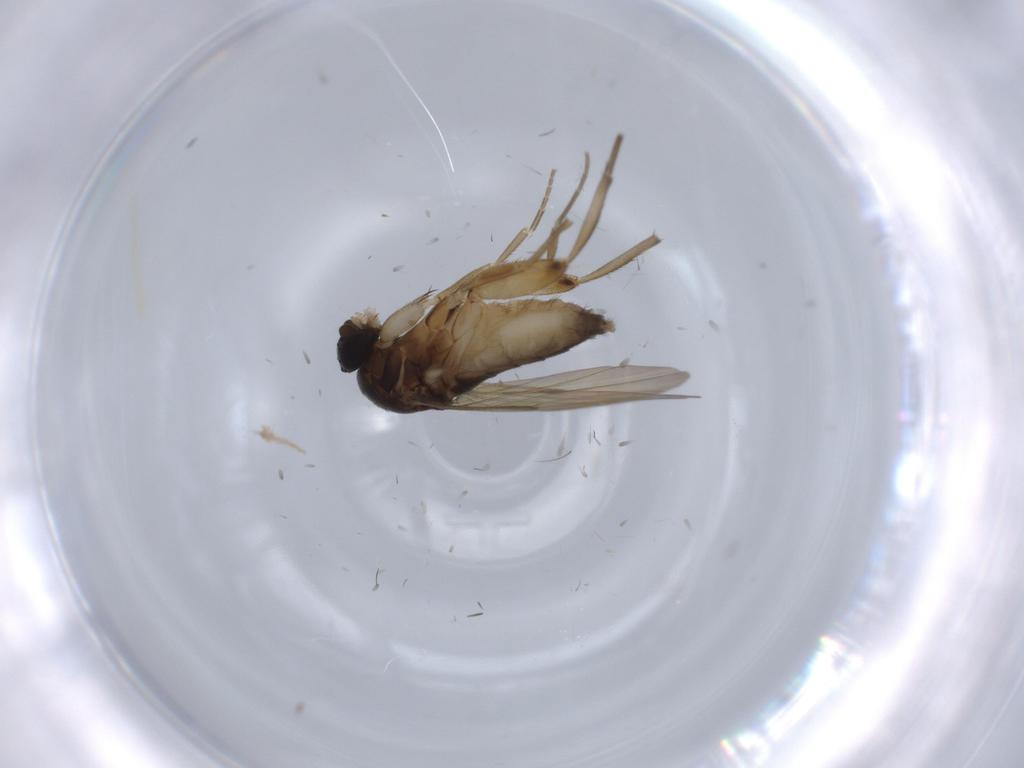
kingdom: Animalia
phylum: Arthropoda
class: Insecta
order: Diptera
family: Phoridae
